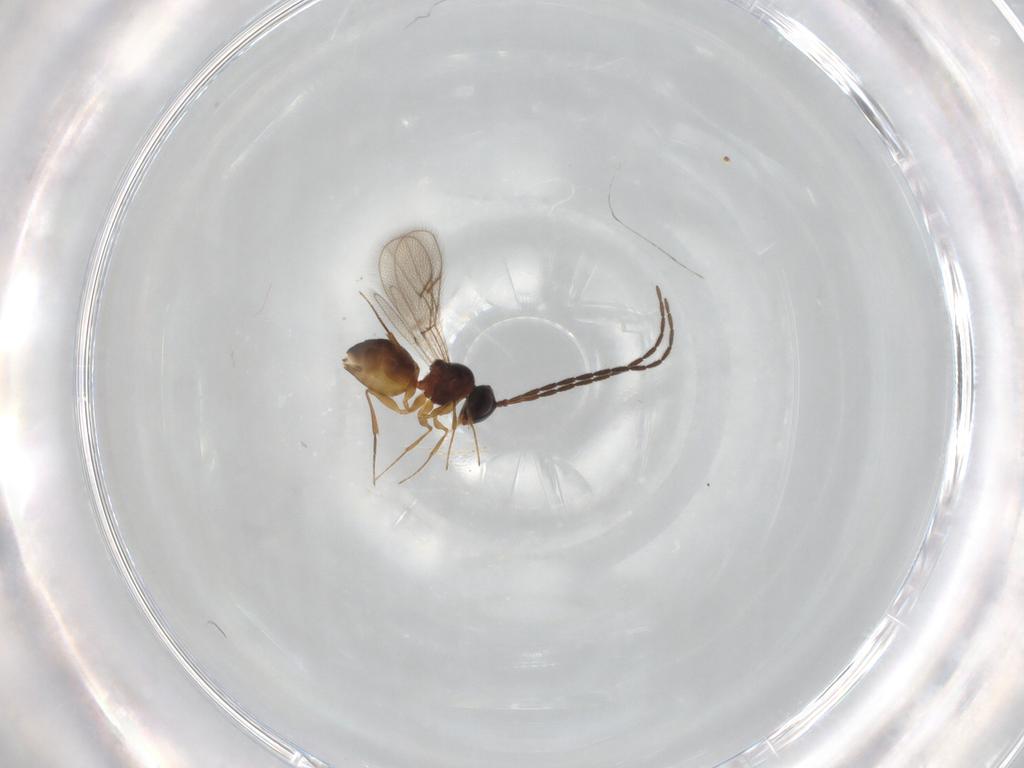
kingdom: Animalia
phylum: Arthropoda
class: Insecta
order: Hymenoptera
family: Figitidae
